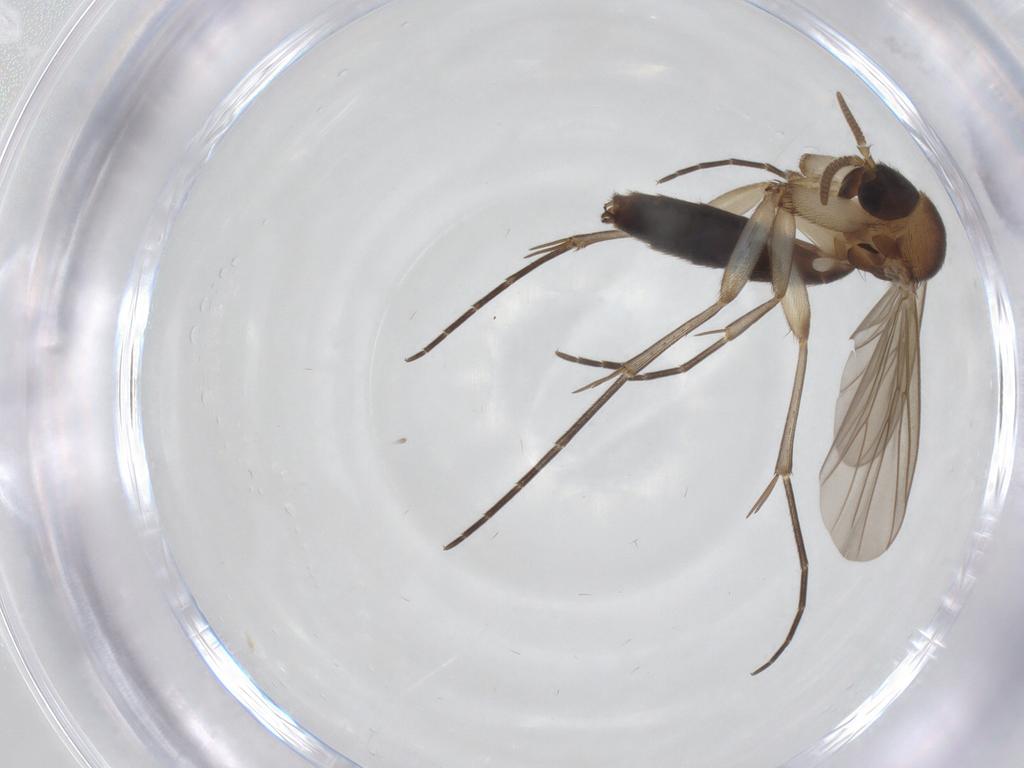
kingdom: Animalia
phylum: Arthropoda
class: Insecta
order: Diptera
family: Mycetophilidae
